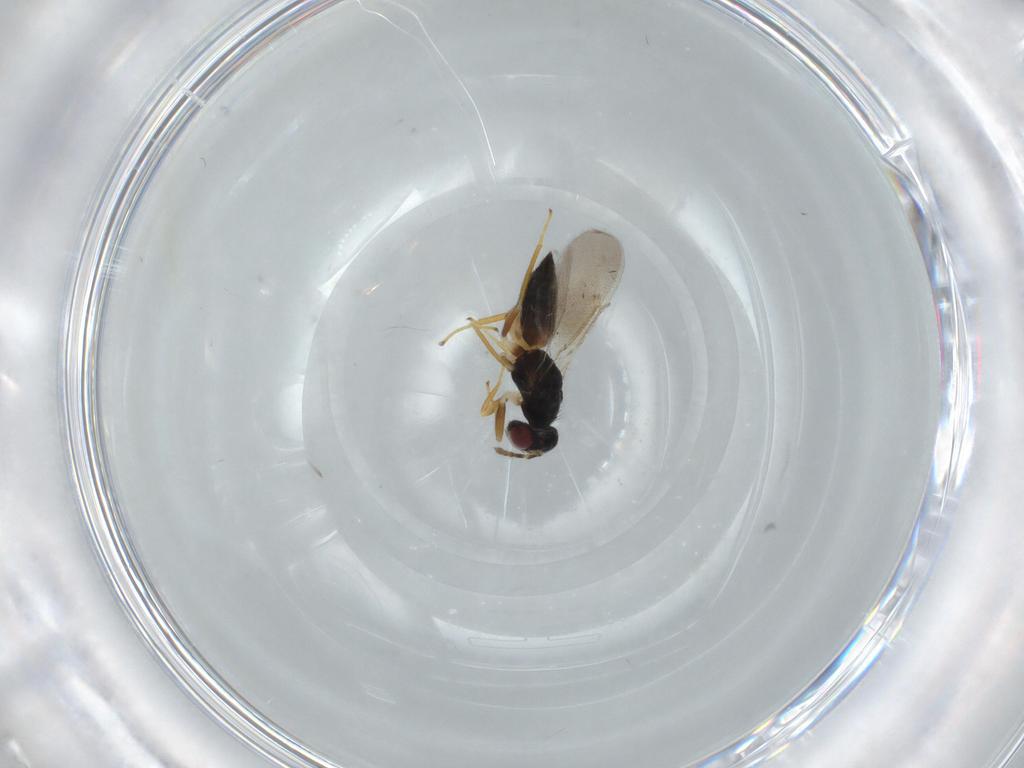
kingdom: Animalia
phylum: Arthropoda
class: Insecta
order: Hymenoptera
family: Eulophidae
